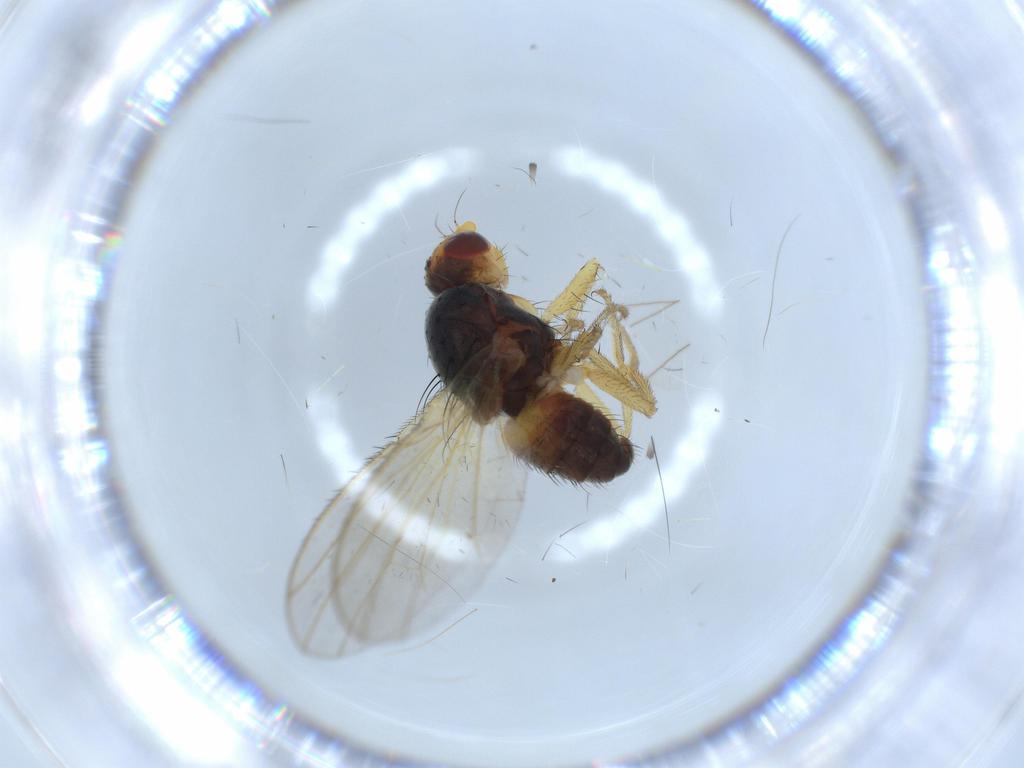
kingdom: Animalia
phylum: Arthropoda
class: Insecta
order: Diptera
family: Heleomyzidae
